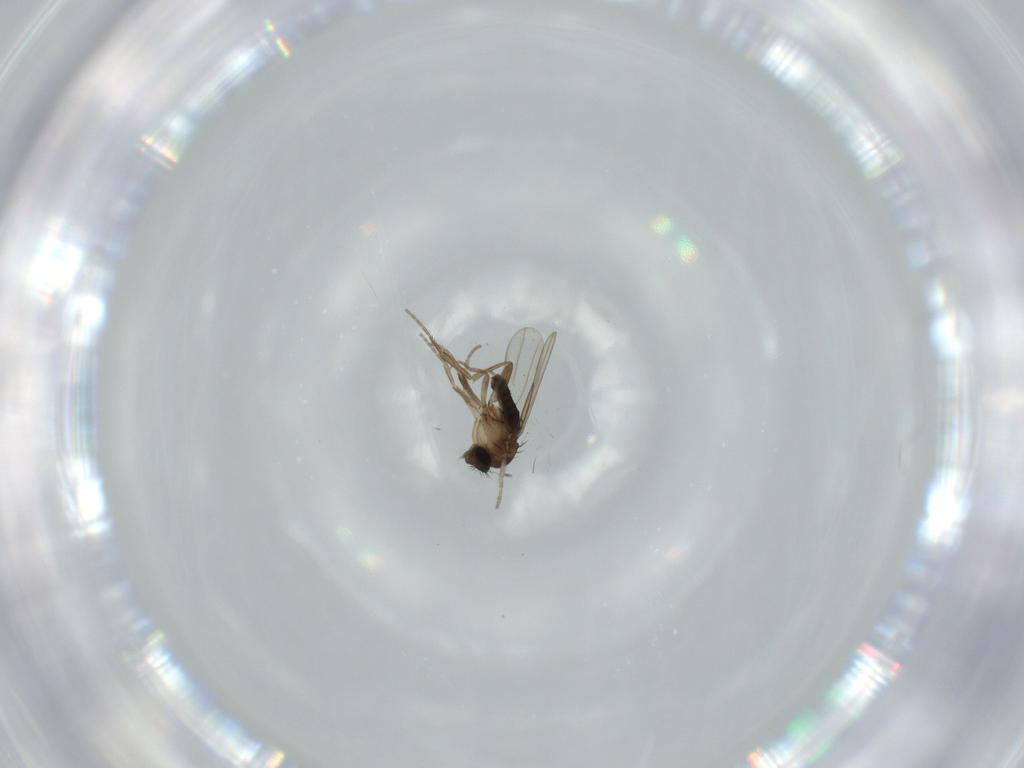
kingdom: Animalia
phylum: Arthropoda
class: Insecta
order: Diptera
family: Phoridae
